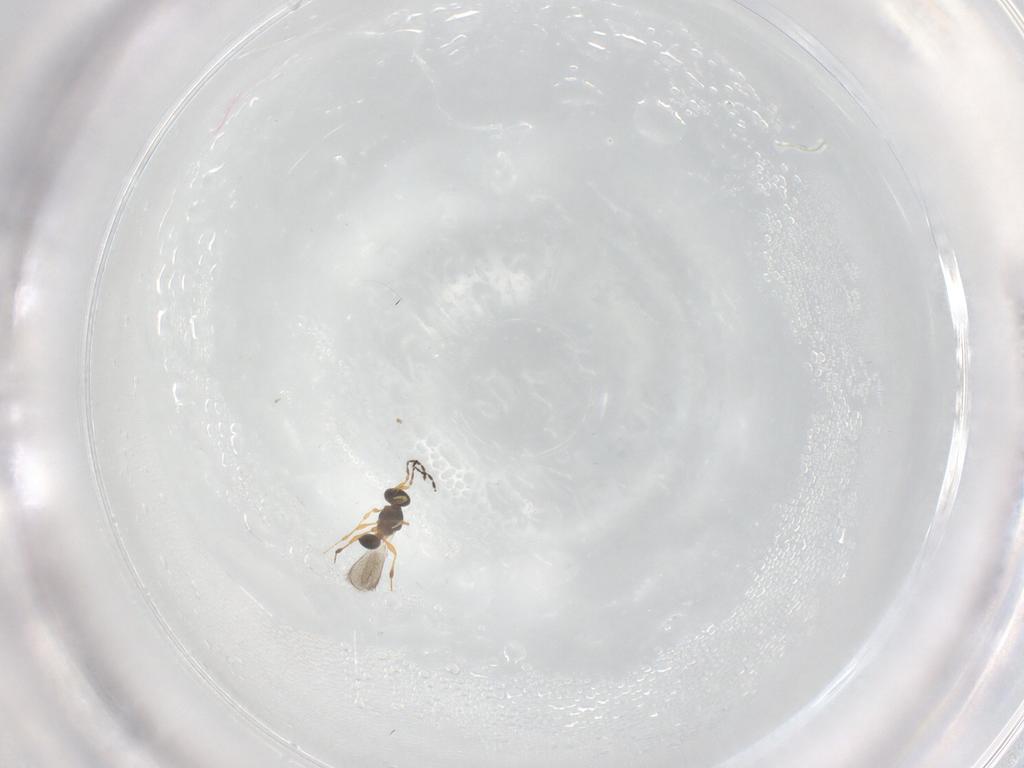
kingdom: Animalia
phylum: Arthropoda
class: Insecta
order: Hymenoptera
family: Platygastridae
